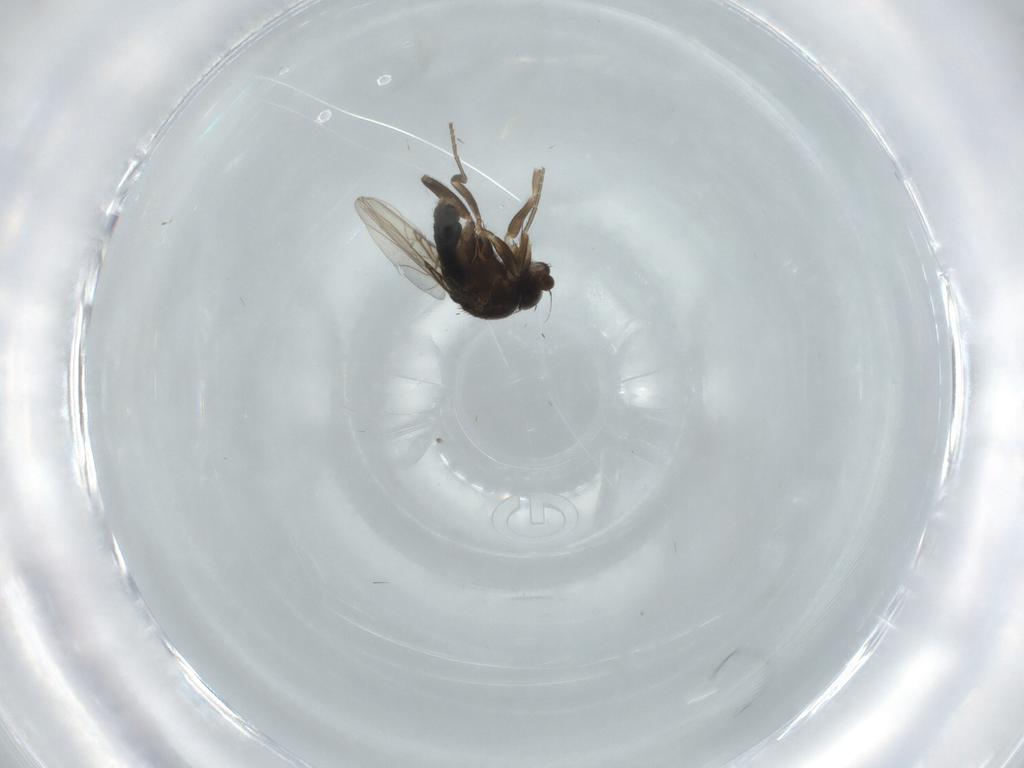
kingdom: Animalia
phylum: Arthropoda
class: Insecta
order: Diptera
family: Phoridae
